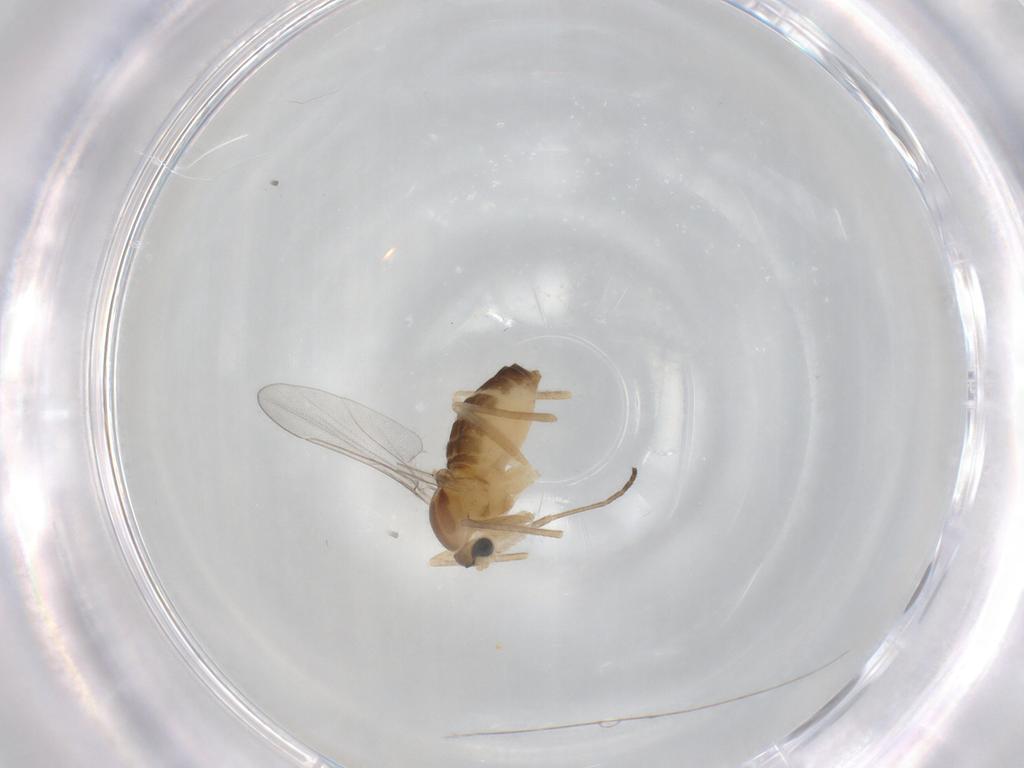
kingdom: Animalia
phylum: Arthropoda
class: Insecta
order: Diptera
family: Cecidomyiidae
